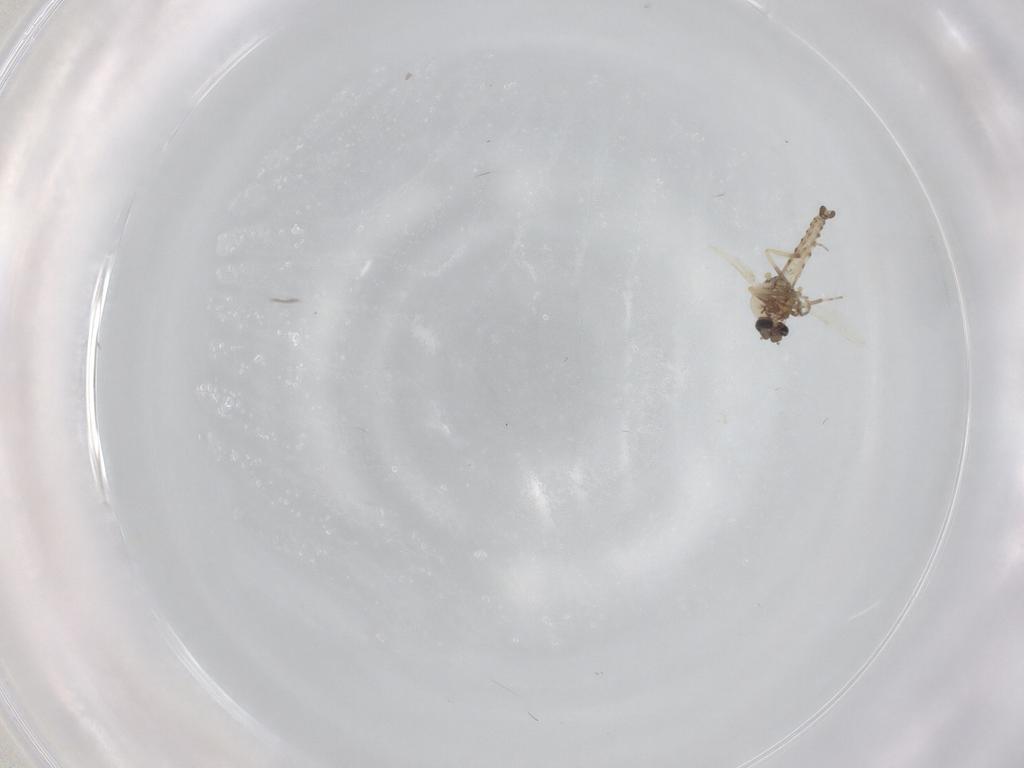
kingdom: Animalia
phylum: Arthropoda
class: Insecta
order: Diptera
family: Ceratopogonidae
